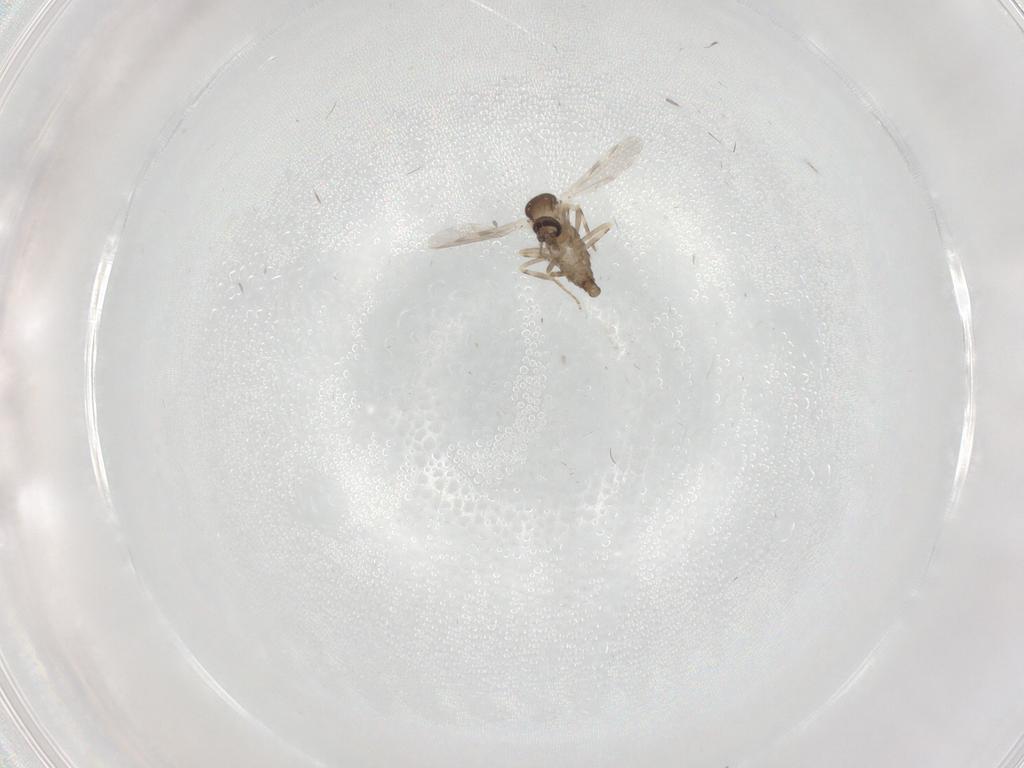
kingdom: Animalia
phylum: Arthropoda
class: Insecta
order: Diptera
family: Ceratopogonidae
